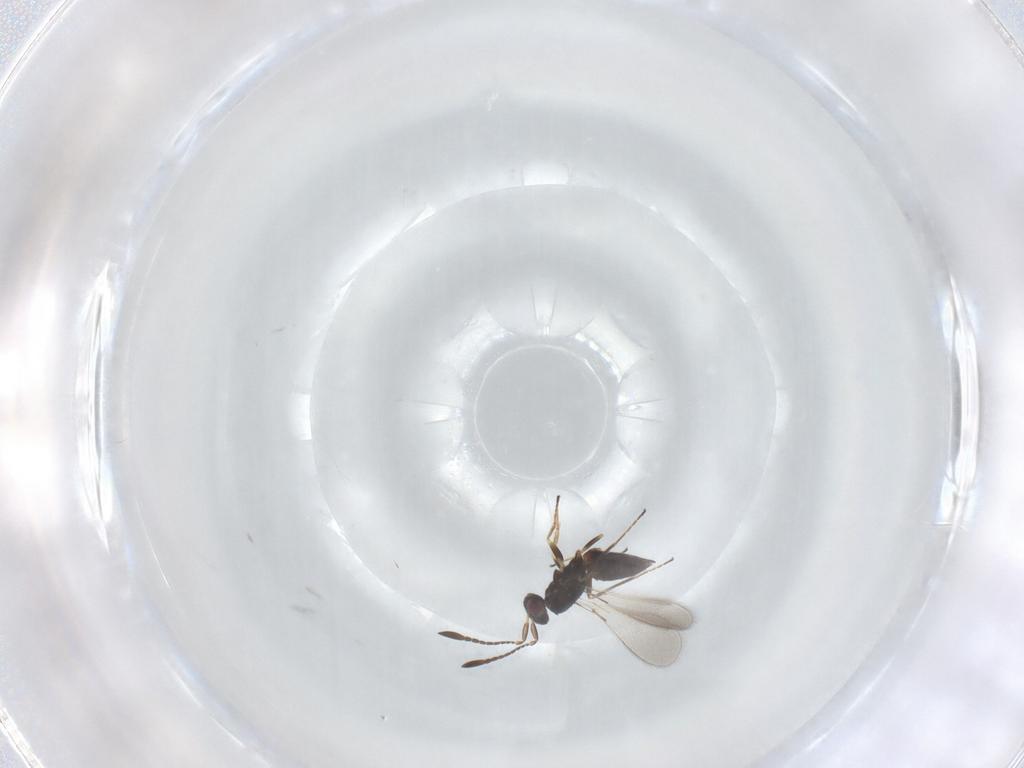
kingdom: Animalia
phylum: Arthropoda
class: Insecta
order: Hymenoptera
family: Mymaridae
